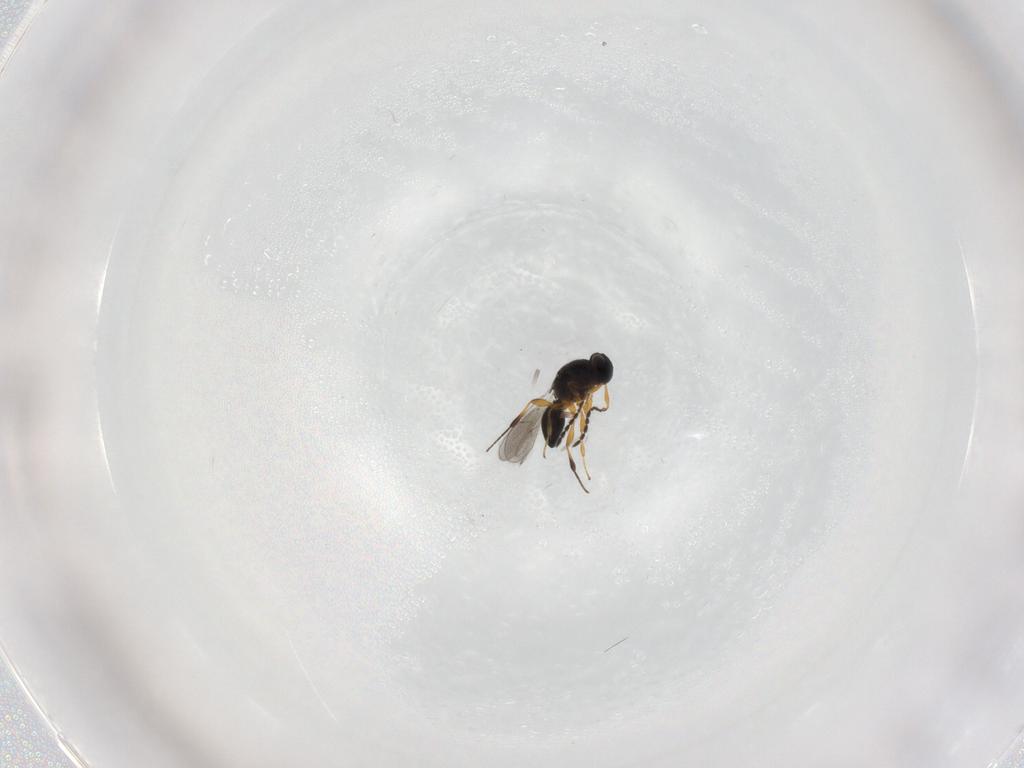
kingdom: Animalia
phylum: Arthropoda
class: Insecta
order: Hymenoptera
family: Platygastridae
